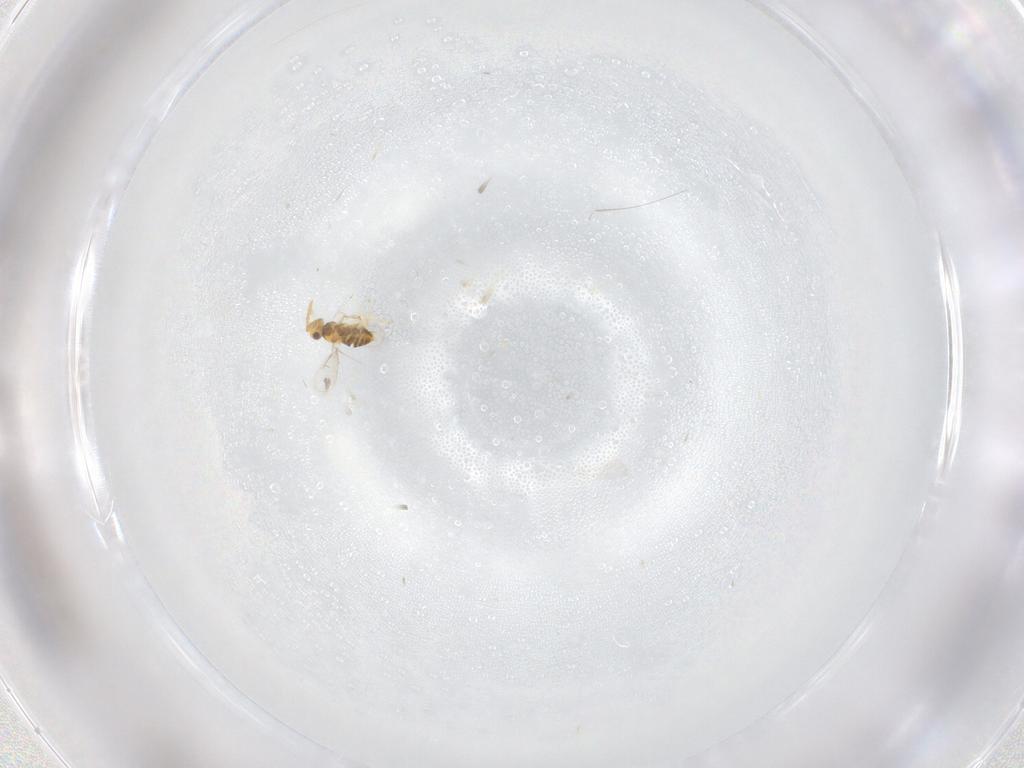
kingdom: Animalia
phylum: Arthropoda
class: Insecta
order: Hymenoptera
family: Aphelinidae
